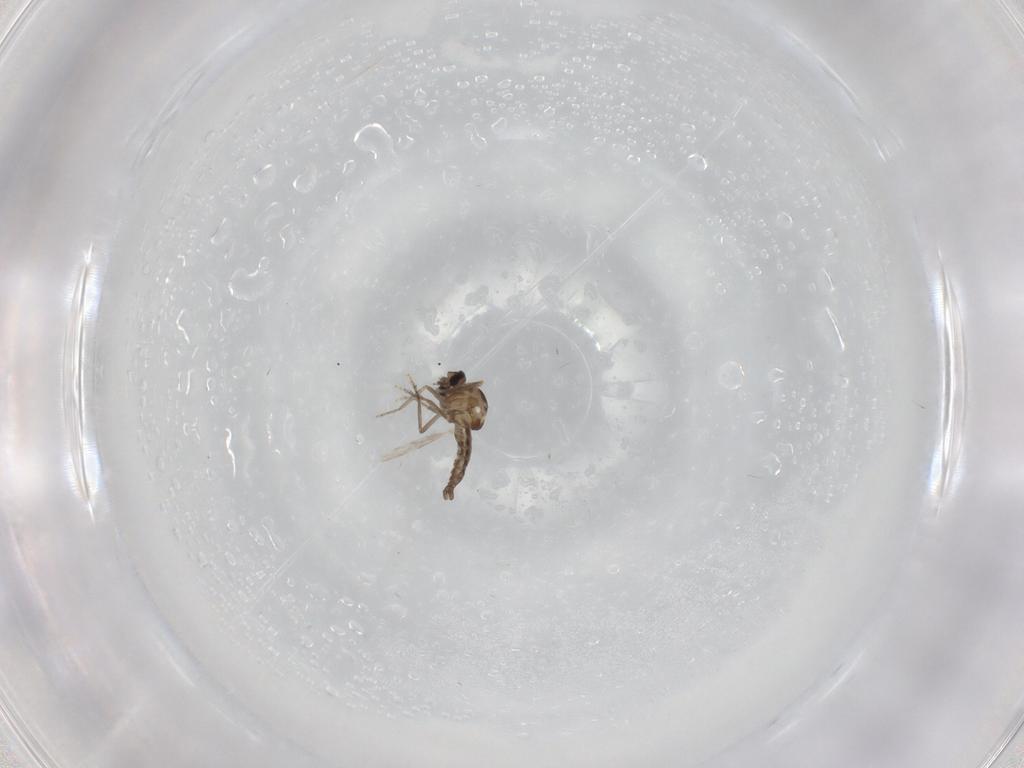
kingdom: Animalia
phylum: Arthropoda
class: Insecta
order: Diptera
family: Ceratopogonidae
